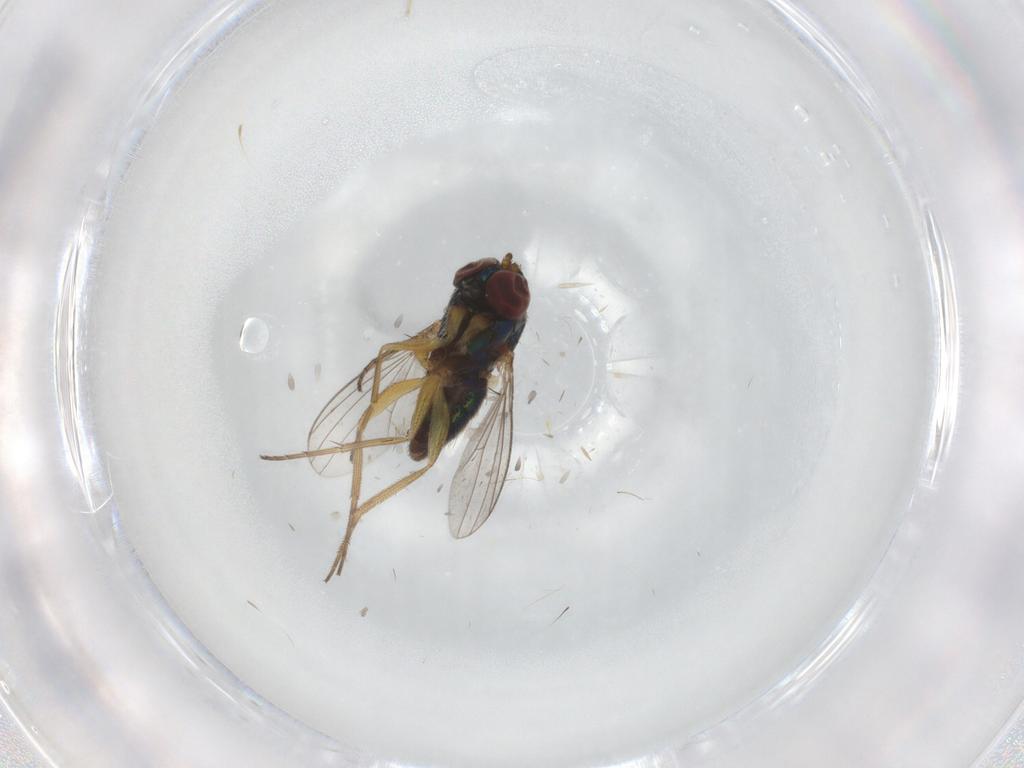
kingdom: Animalia
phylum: Arthropoda
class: Insecta
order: Diptera
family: Dolichopodidae
